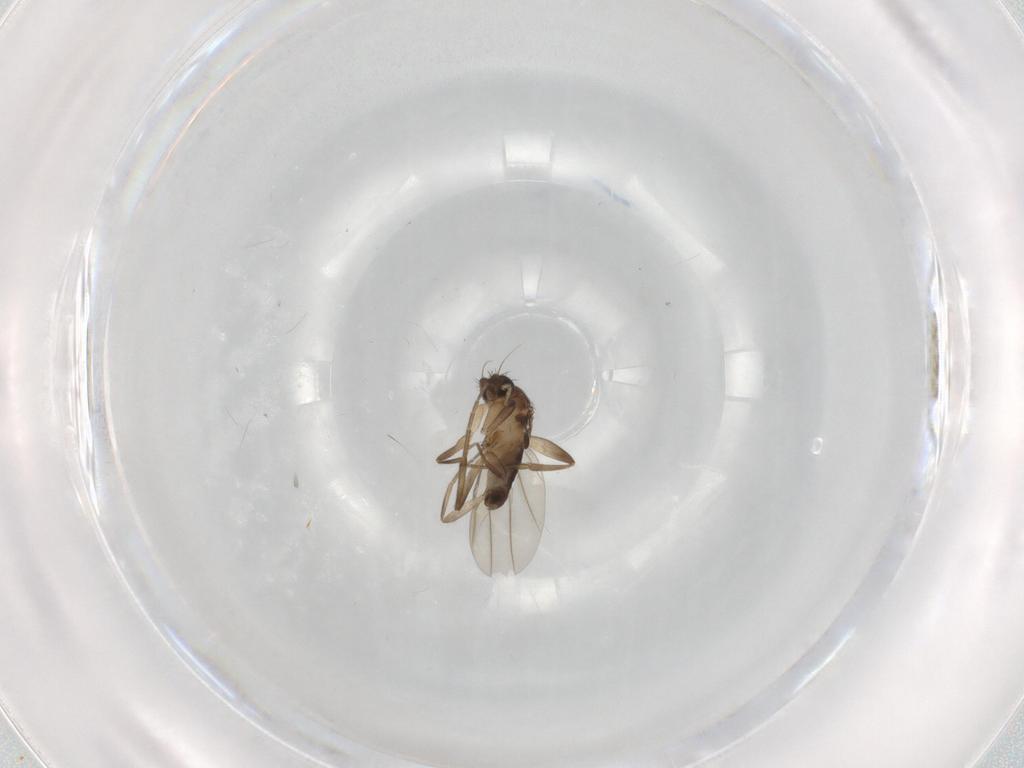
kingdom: Animalia
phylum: Arthropoda
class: Insecta
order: Diptera
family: Phoridae
